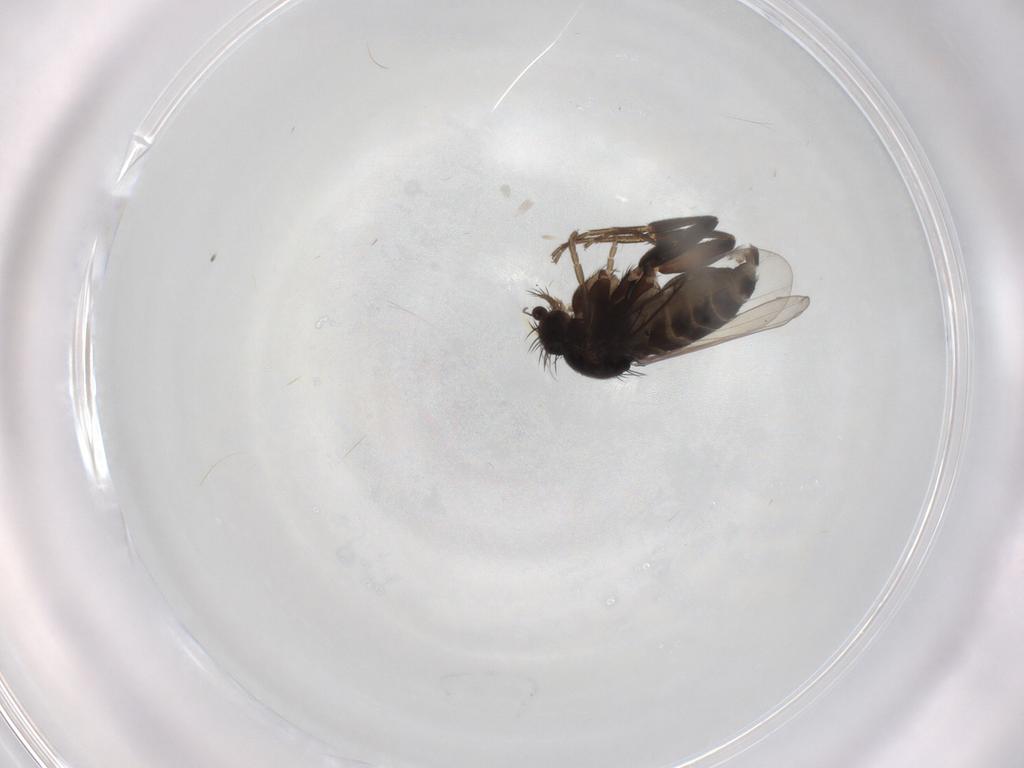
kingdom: Animalia
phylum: Arthropoda
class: Insecta
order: Diptera
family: Phoridae
